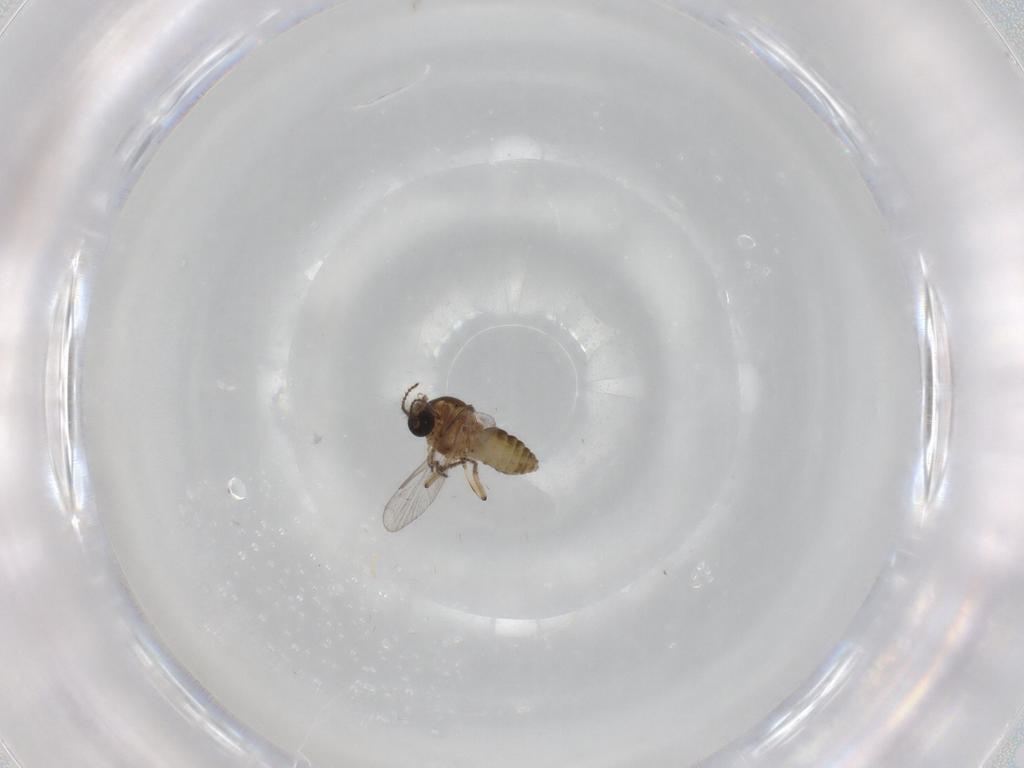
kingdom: Animalia
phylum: Arthropoda
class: Insecta
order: Diptera
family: Ceratopogonidae
